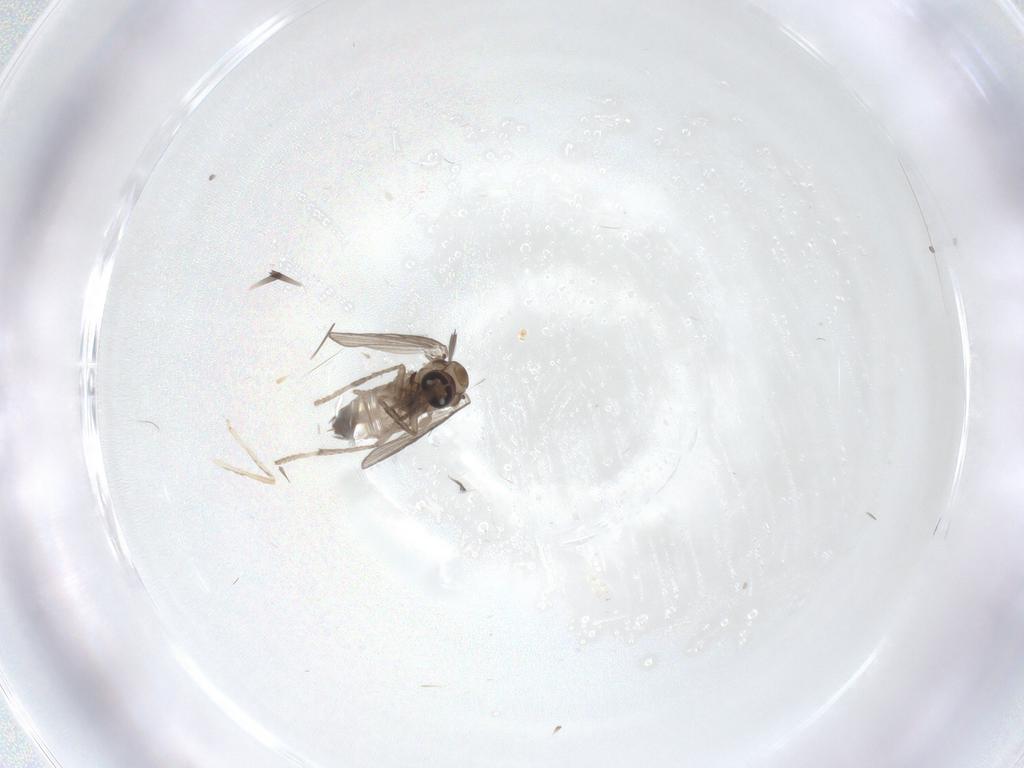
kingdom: Animalia
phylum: Arthropoda
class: Insecta
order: Diptera
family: Psychodidae
